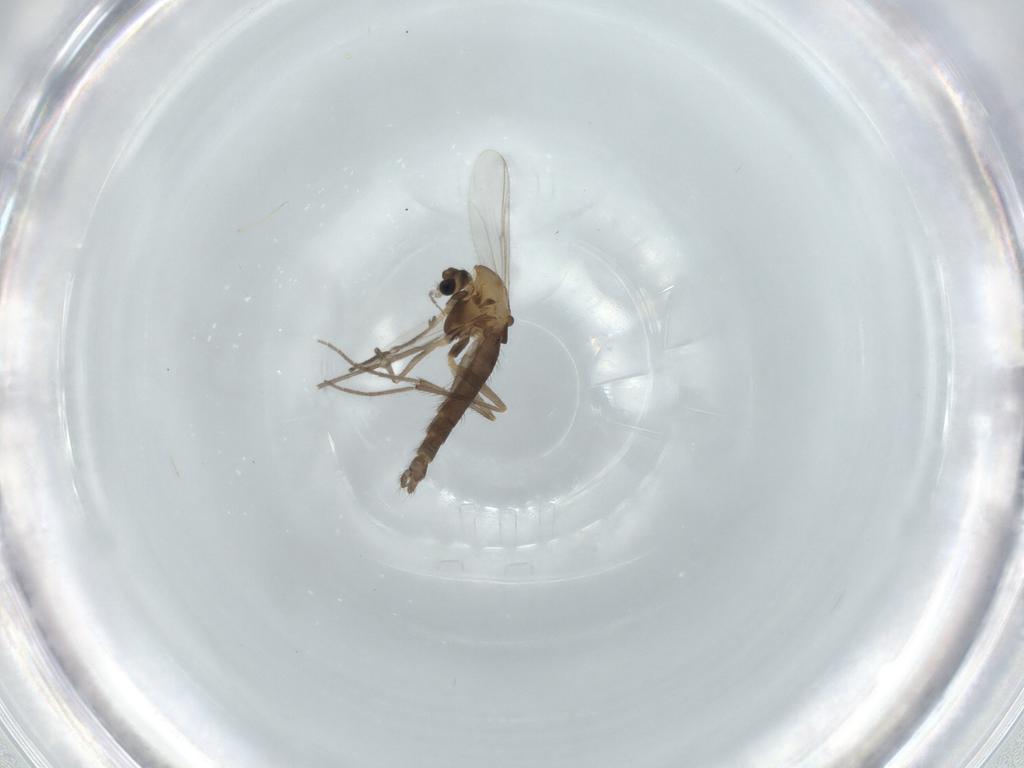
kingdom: Animalia
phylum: Arthropoda
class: Insecta
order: Diptera
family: Chironomidae
